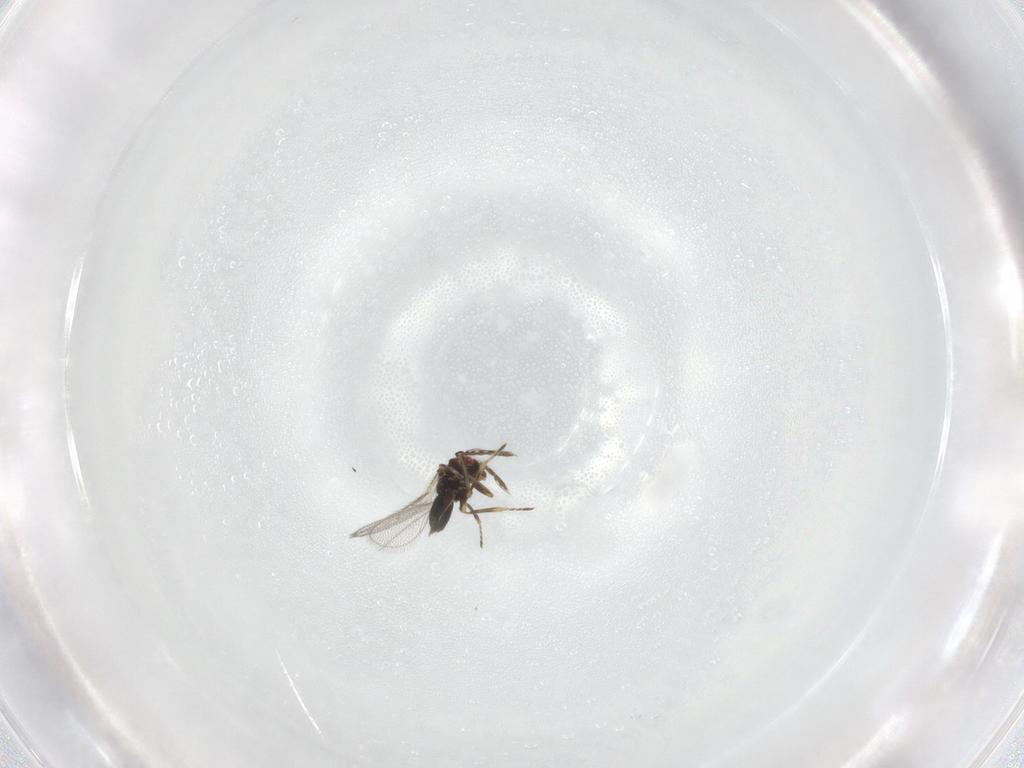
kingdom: Animalia
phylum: Arthropoda
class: Insecta
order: Hymenoptera
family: Eulophidae
